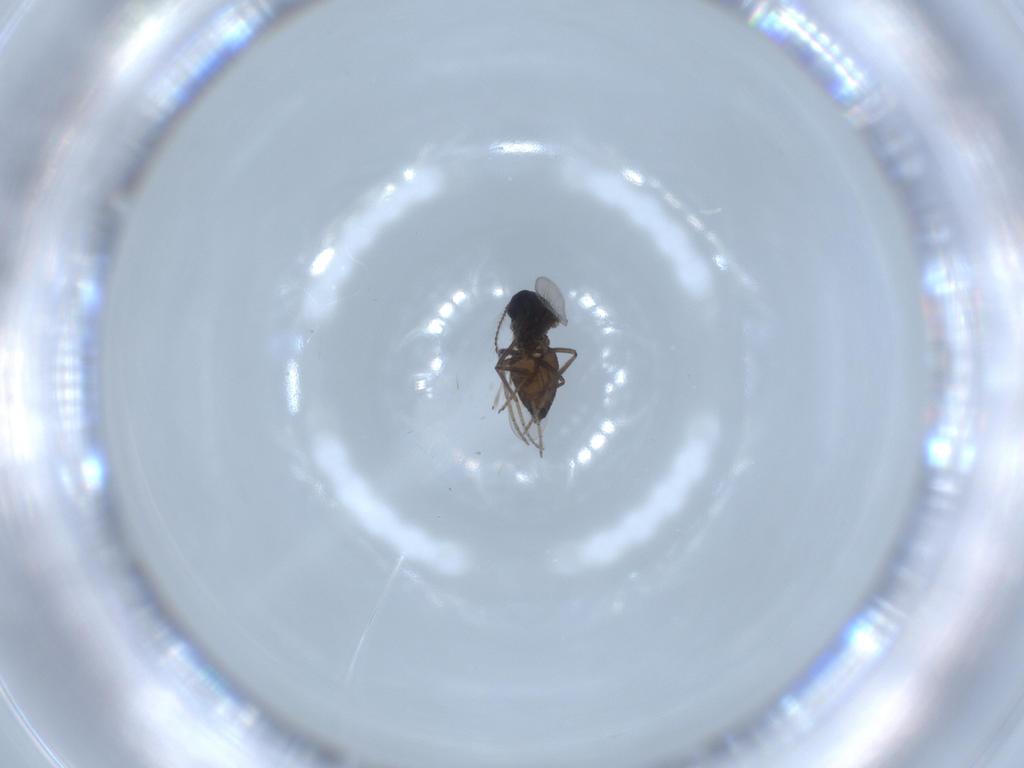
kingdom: Animalia
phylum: Arthropoda
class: Insecta
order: Diptera
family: Ceratopogonidae
